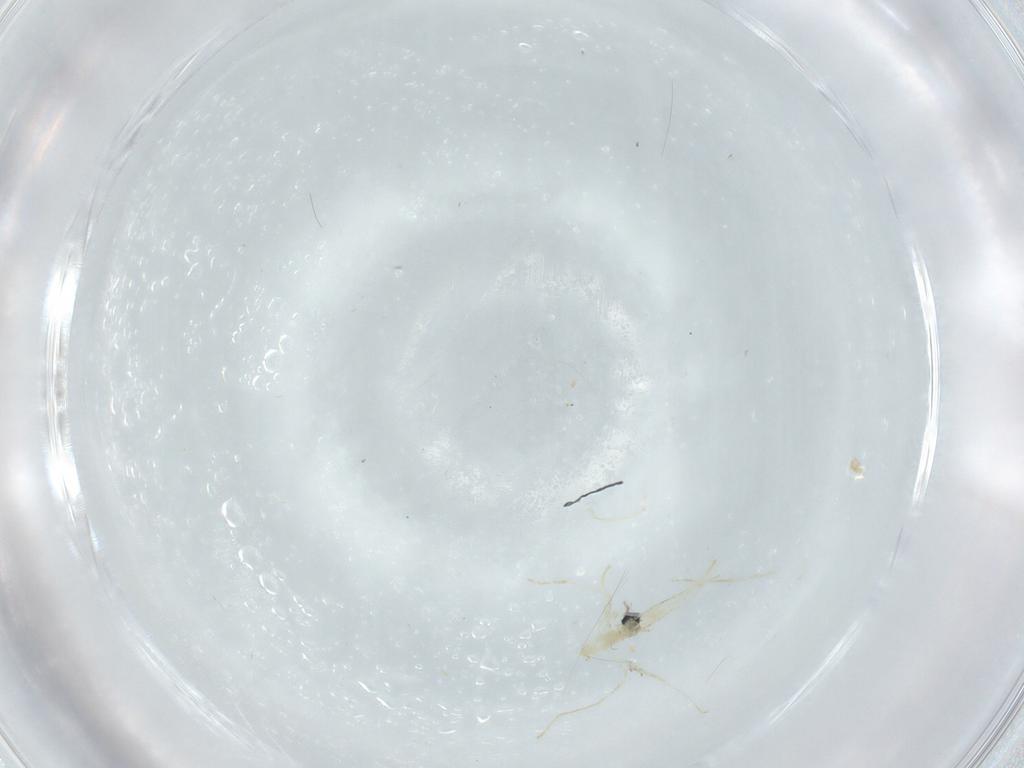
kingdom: Animalia
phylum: Arthropoda
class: Insecta
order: Diptera
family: Cecidomyiidae
